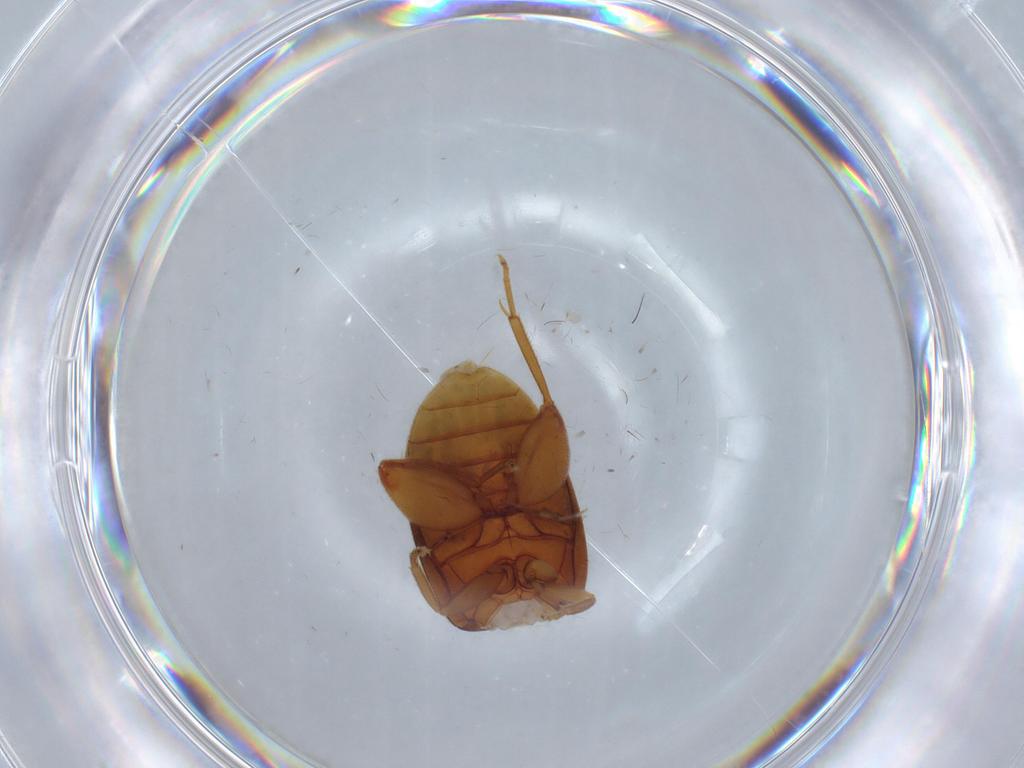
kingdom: Animalia
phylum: Arthropoda
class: Insecta
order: Coleoptera
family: Scirtidae
